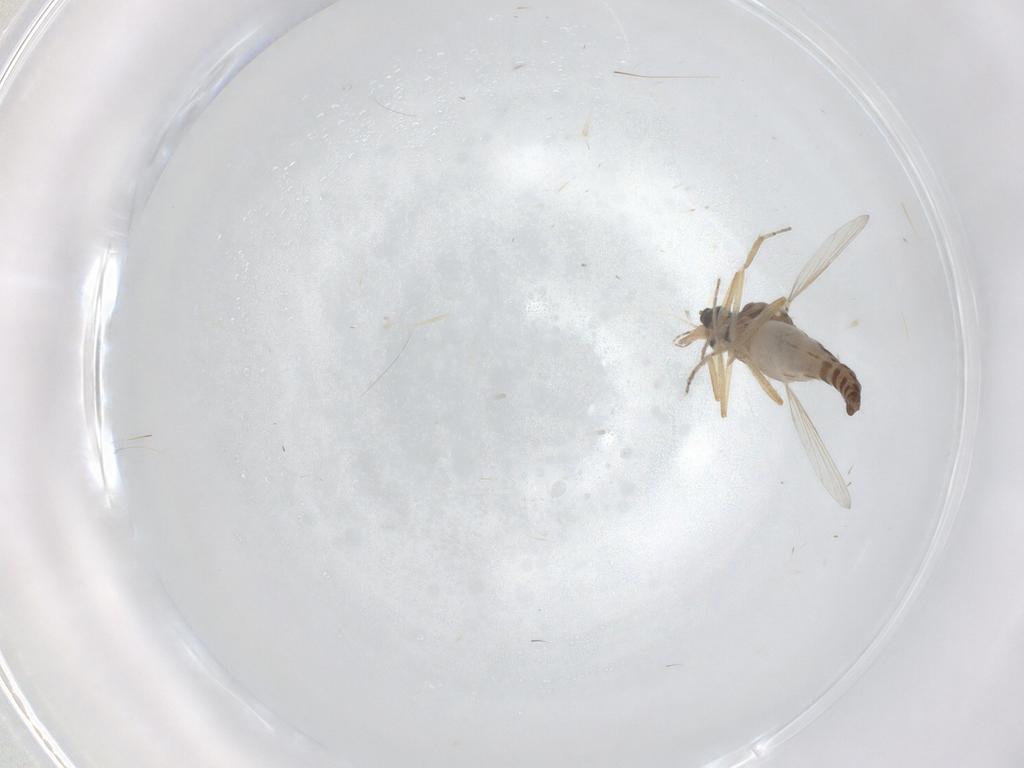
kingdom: Animalia
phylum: Arthropoda
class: Insecta
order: Diptera
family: Ceratopogonidae
